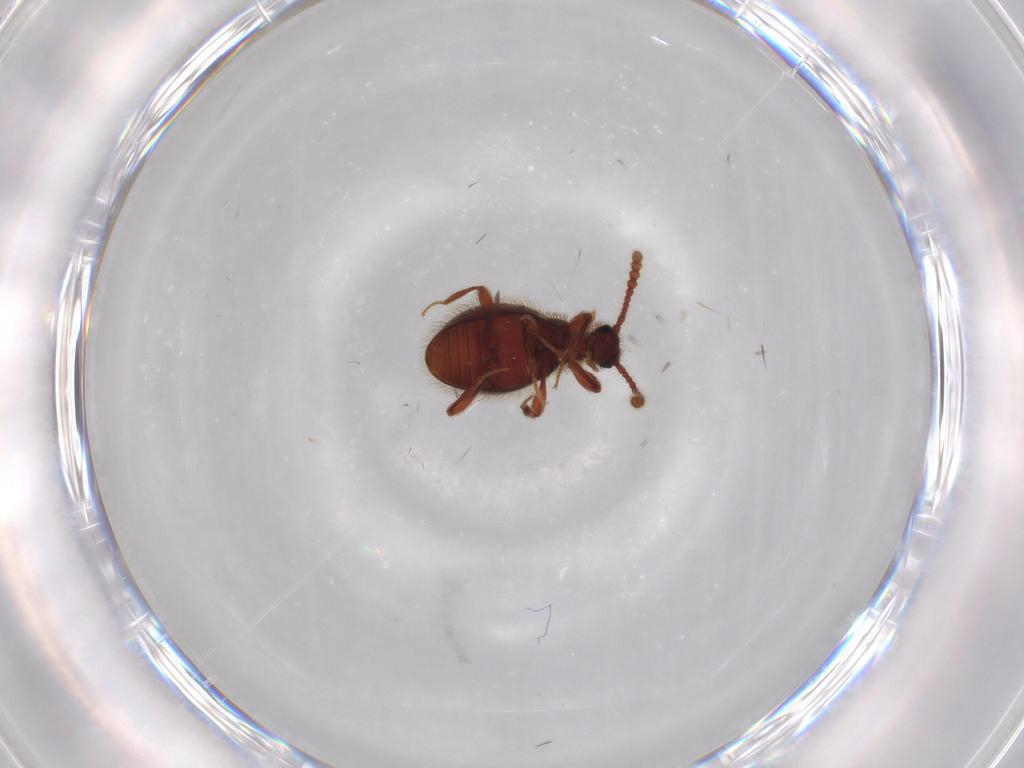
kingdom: Animalia
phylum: Arthropoda
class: Insecta
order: Coleoptera
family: Staphylinidae
